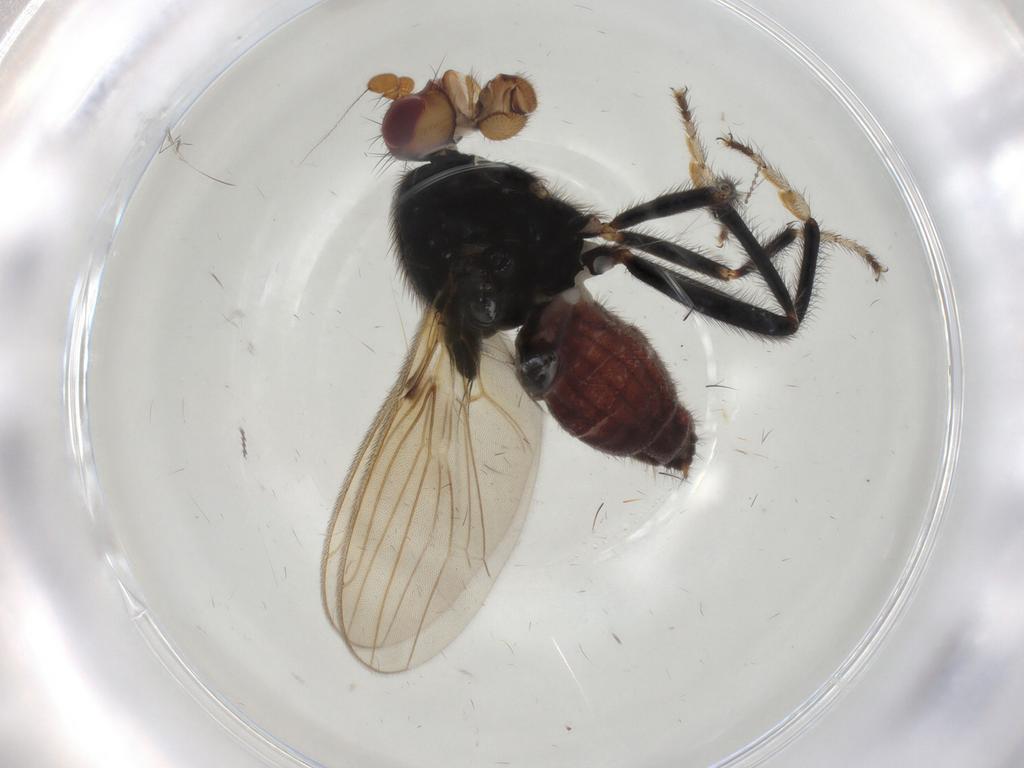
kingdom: Animalia
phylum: Arthropoda
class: Insecta
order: Diptera
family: Sphaeroceridae
